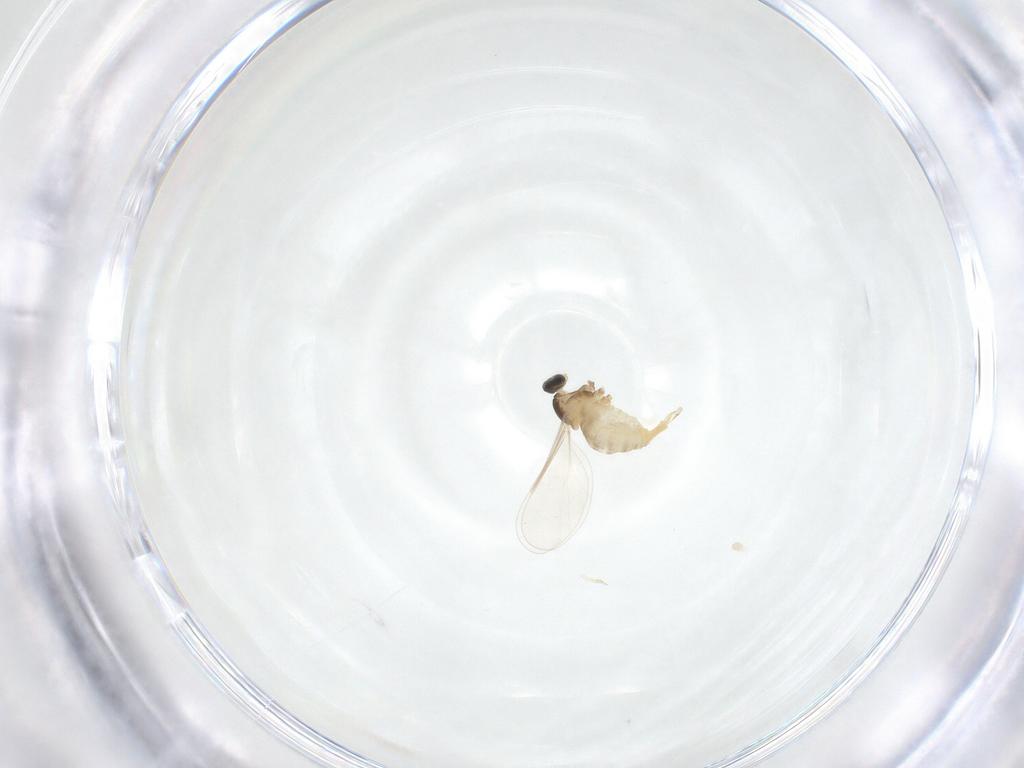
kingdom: Animalia
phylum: Arthropoda
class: Insecta
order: Diptera
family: Cecidomyiidae
